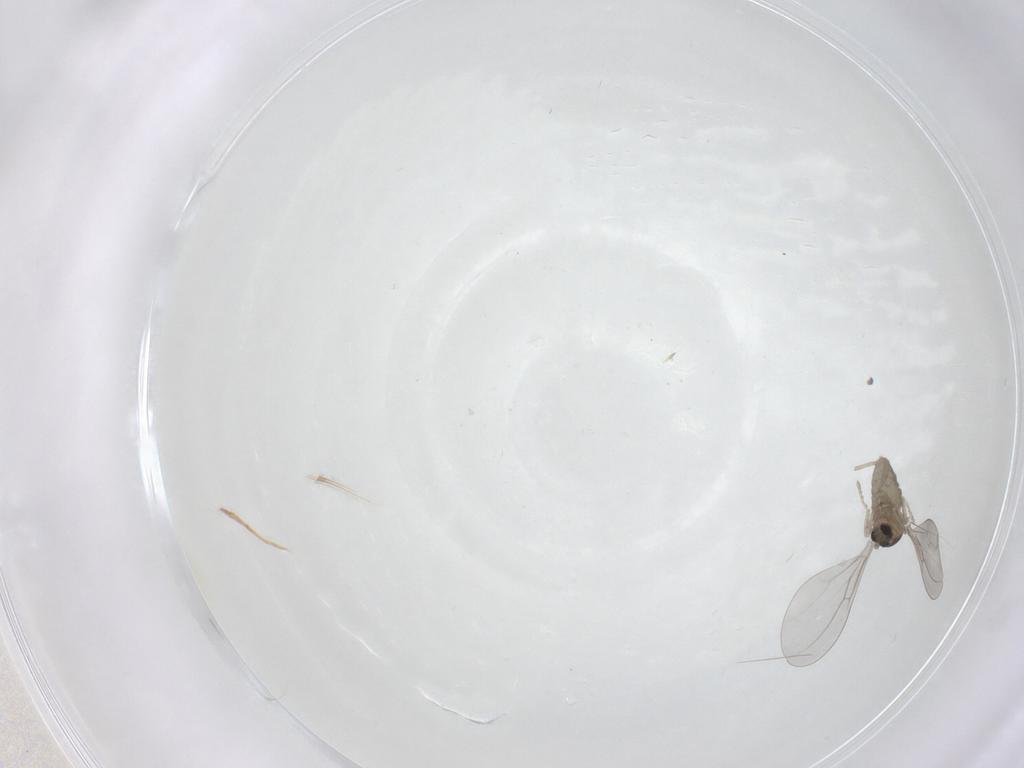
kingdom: Animalia
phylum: Arthropoda
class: Insecta
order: Diptera
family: Cecidomyiidae
